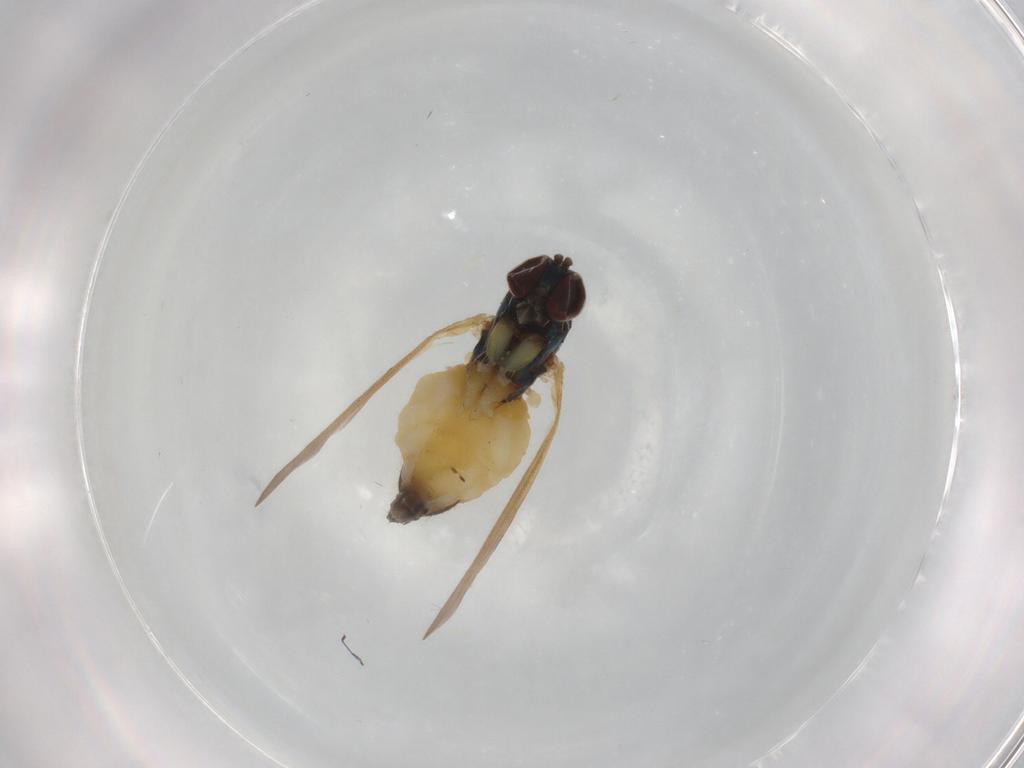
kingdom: Animalia
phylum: Arthropoda
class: Insecta
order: Diptera
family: Dolichopodidae
